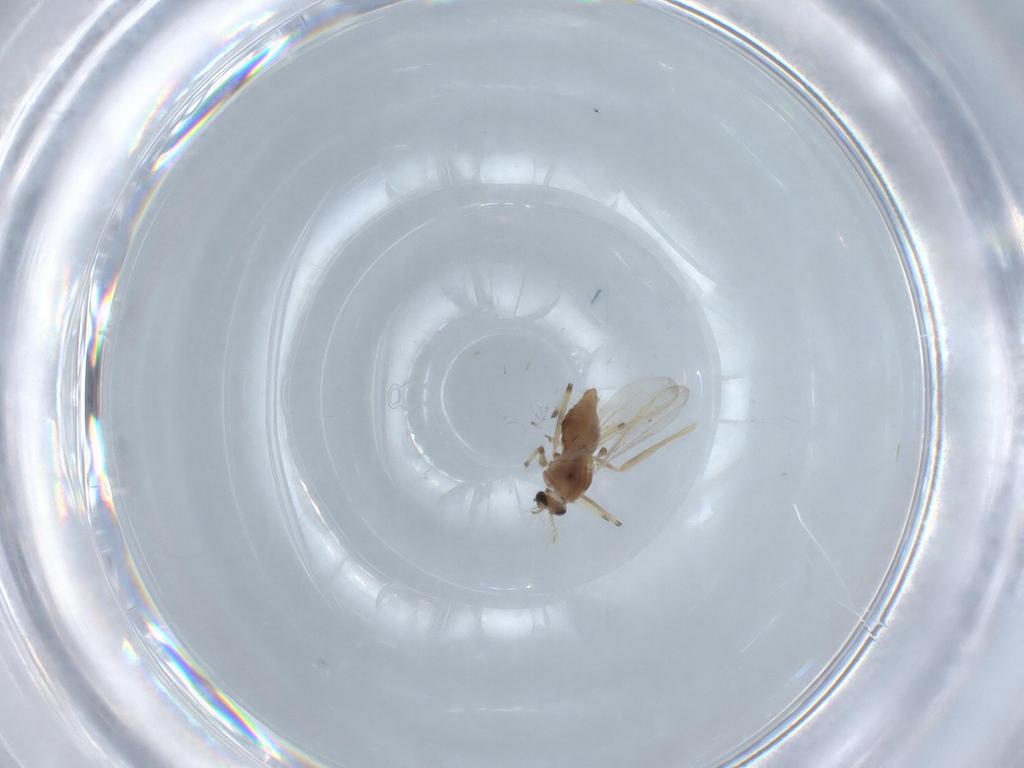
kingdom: Animalia
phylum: Arthropoda
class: Insecta
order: Diptera
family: Chironomidae
